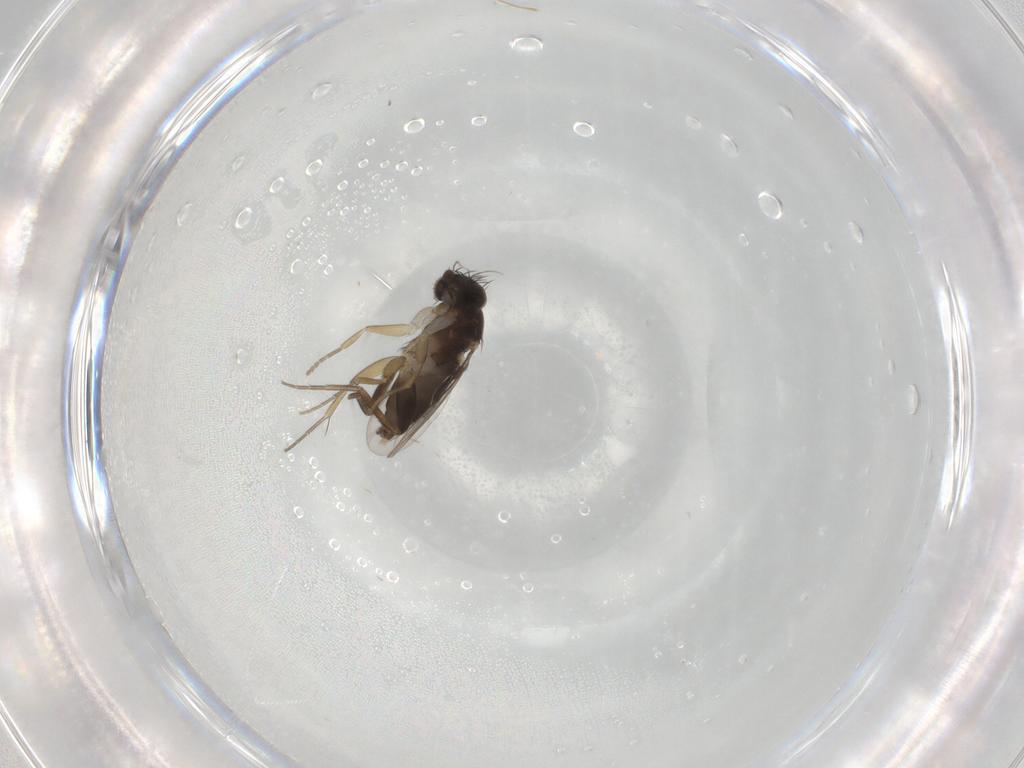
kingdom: Animalia
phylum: Arthropoda
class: Insecta
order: Diptera
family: Phoridae
